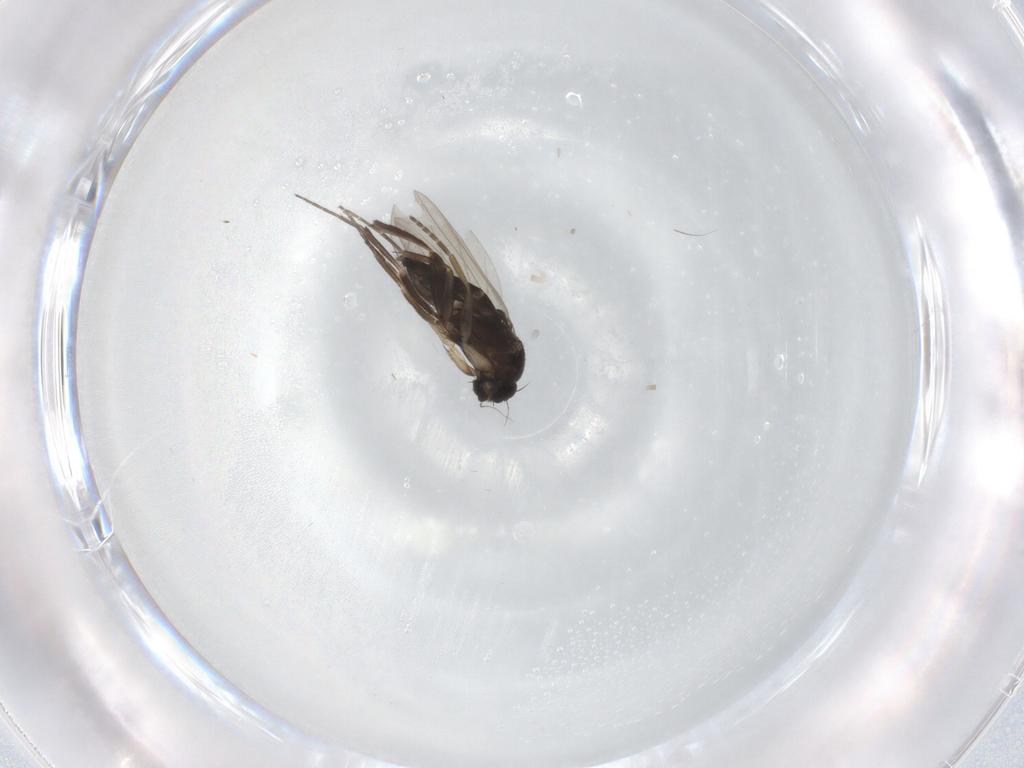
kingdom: Animalia
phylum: Arthropoda
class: Insecta
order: Diptera
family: Phoridae
